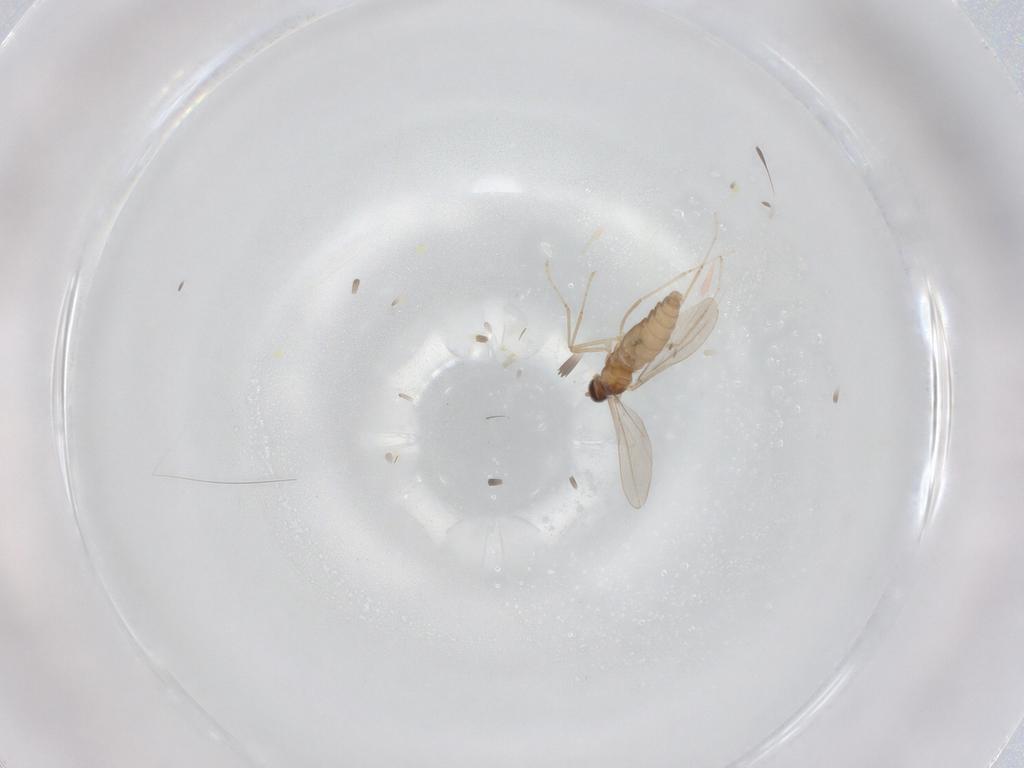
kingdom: Animalia
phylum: Arthropoda
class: Insecta
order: Diptera
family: Cecidomyiidae
